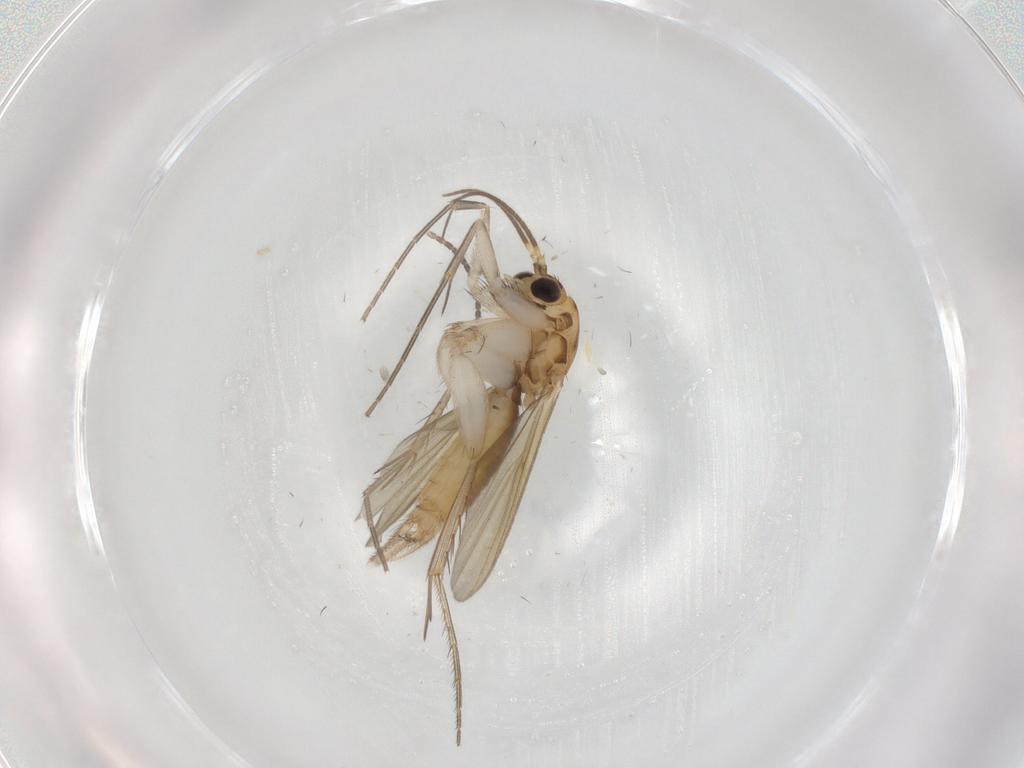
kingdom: Animalia
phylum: Arthropoda
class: Insecta
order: Diptera
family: Mycetophilidae
